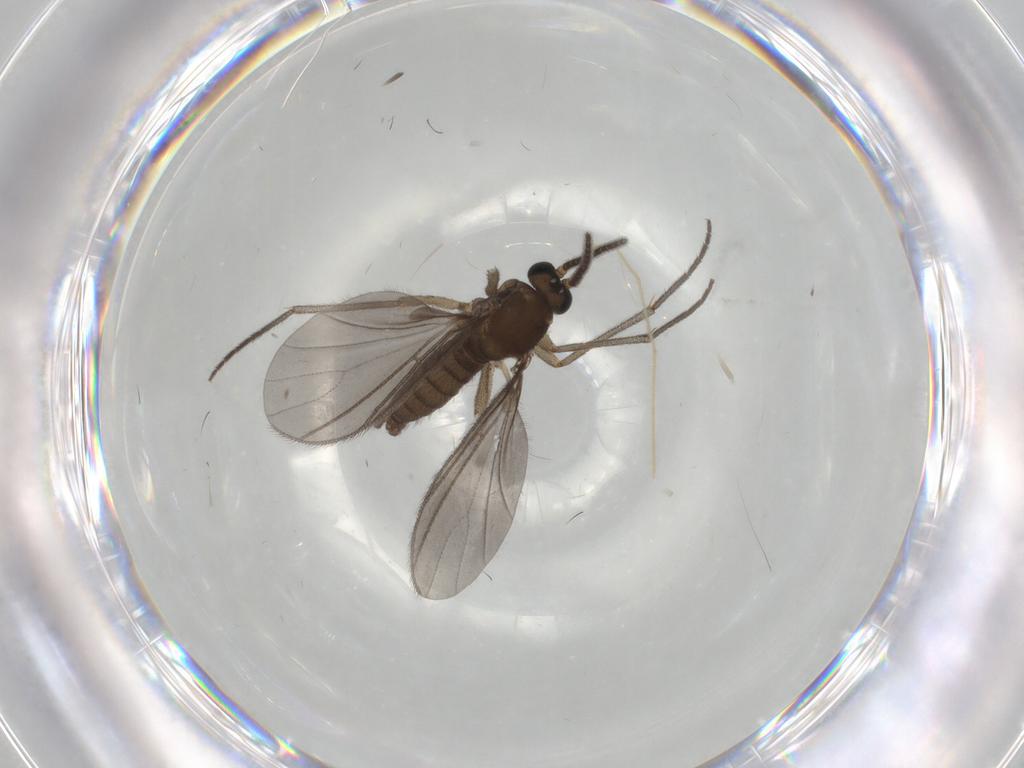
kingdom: Animalia
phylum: Arthropoda
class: Insecta
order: Diptera
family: Sciaridae
